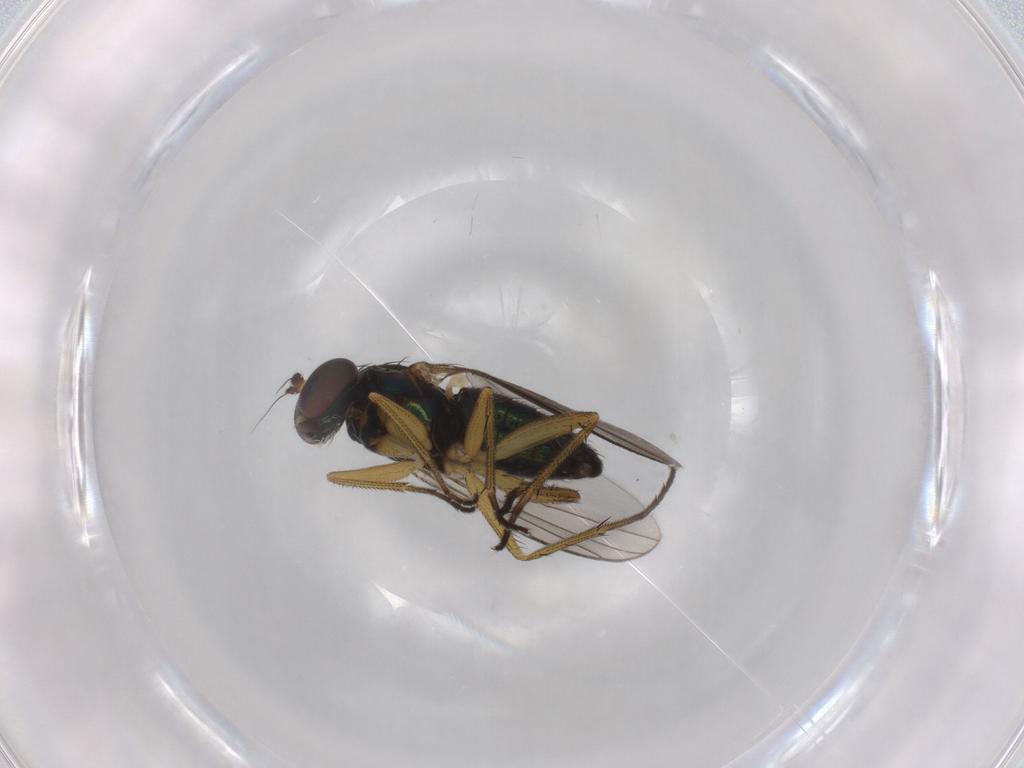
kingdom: Animalia
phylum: Arthropoda
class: Insecta
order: Diptera
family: Dolichopodidae
